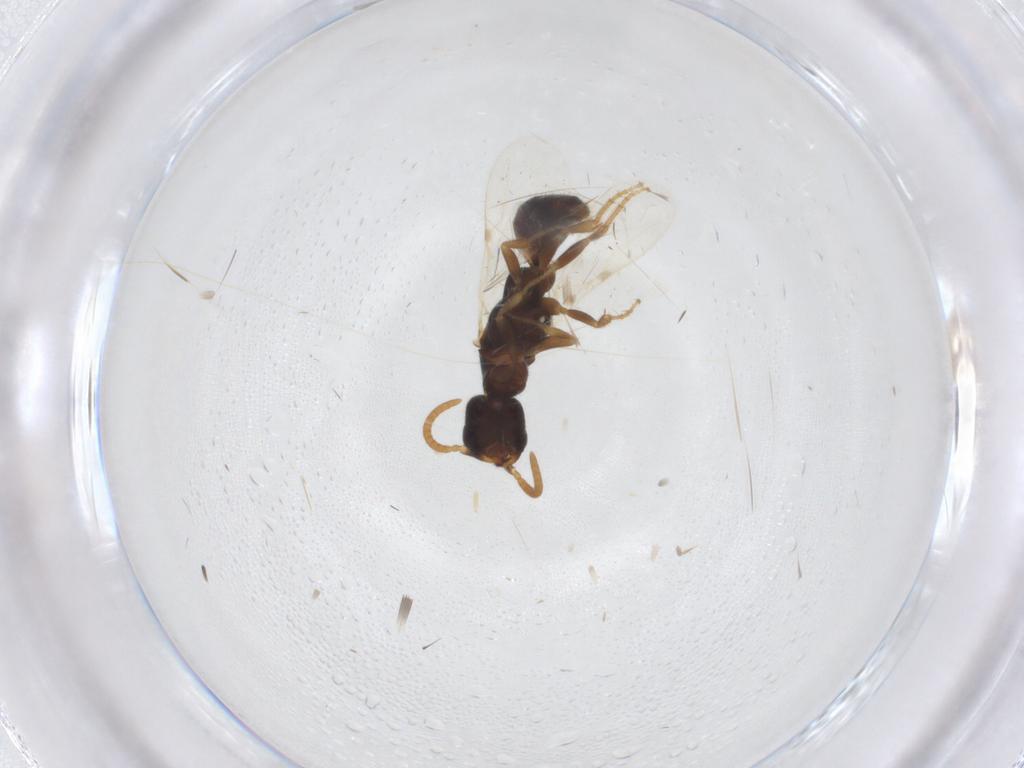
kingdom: Animalia
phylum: Arthropoda
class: Insecta
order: Hymenoptera
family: Bethylidae
